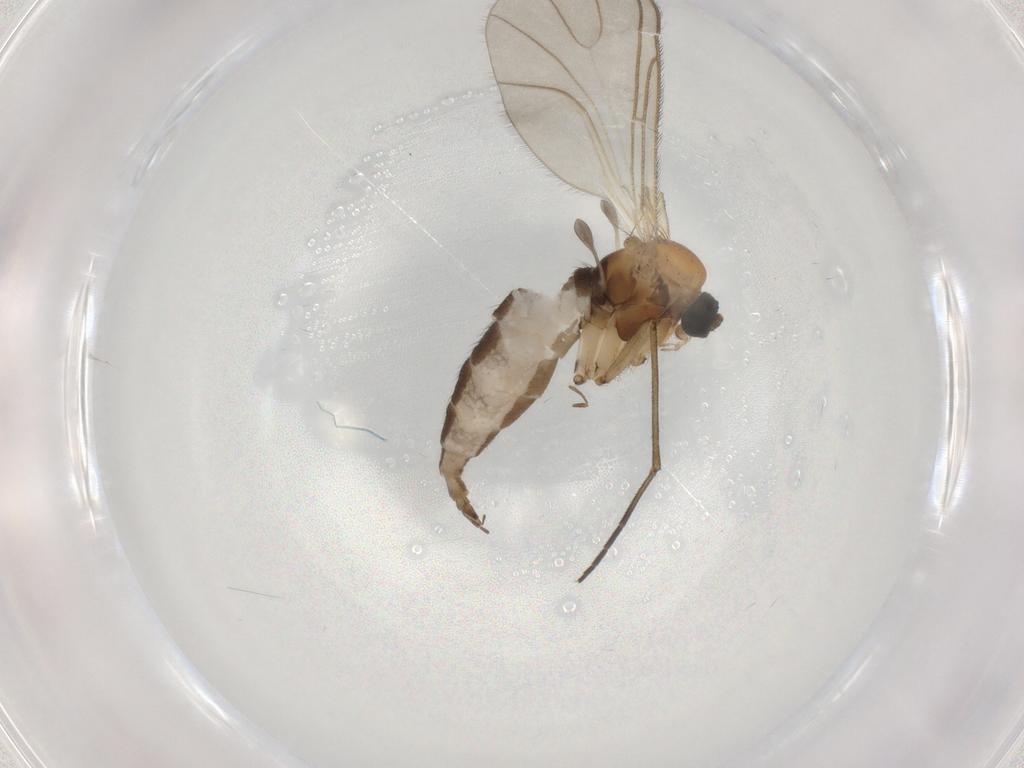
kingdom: Animalia
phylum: Arthropoda
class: Insecta
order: Diptera
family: Sciaridae
